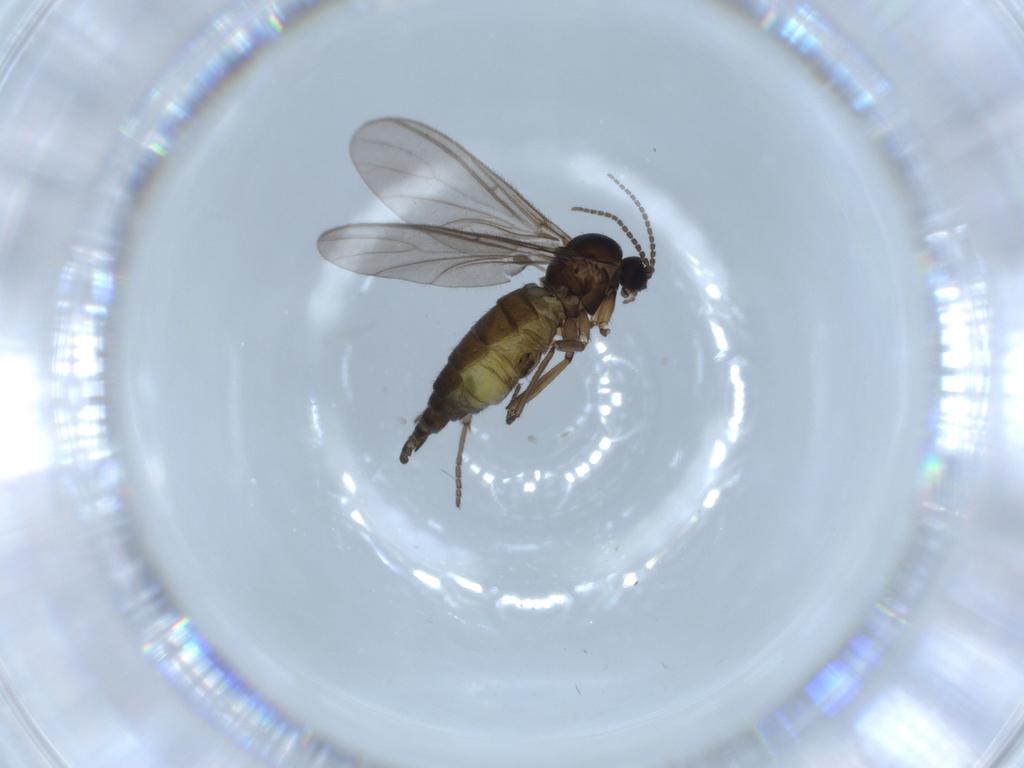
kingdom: Animalia
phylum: Arthropoda
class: Insecta
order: Diptera
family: Sciaridae
